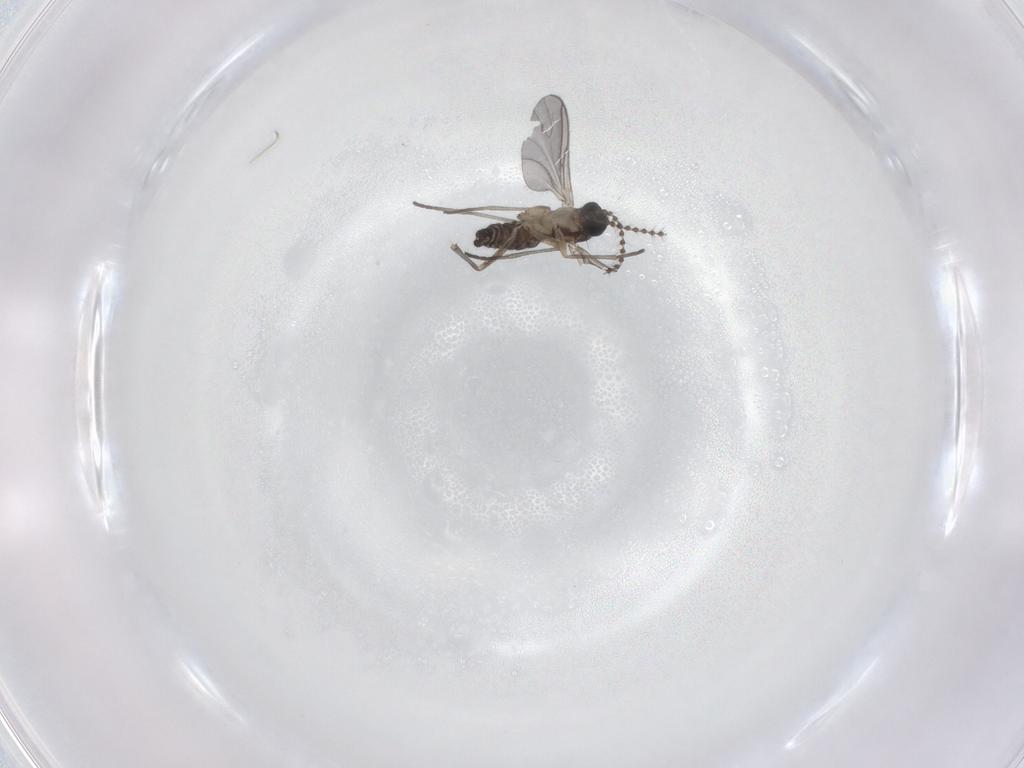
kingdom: Animalia
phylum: Arthropoda
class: Insecta
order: Diptera
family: Sciaridae
